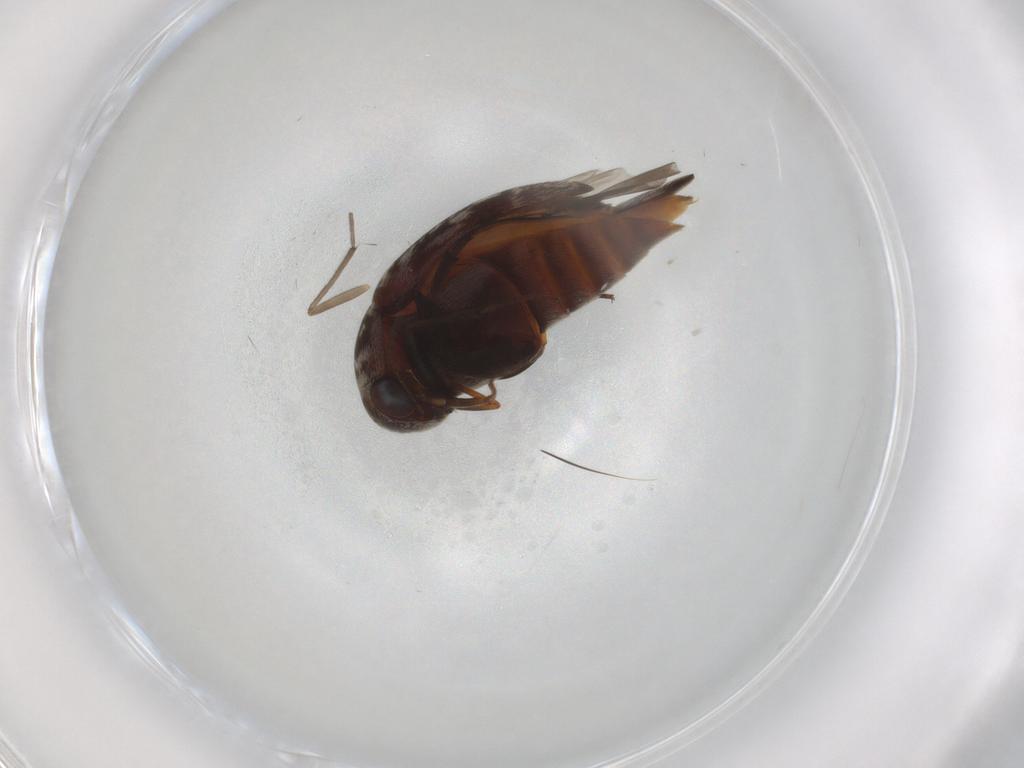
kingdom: Animalia
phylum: Arthropoda
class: Insecta
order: Coleoptera
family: Mordellidae
